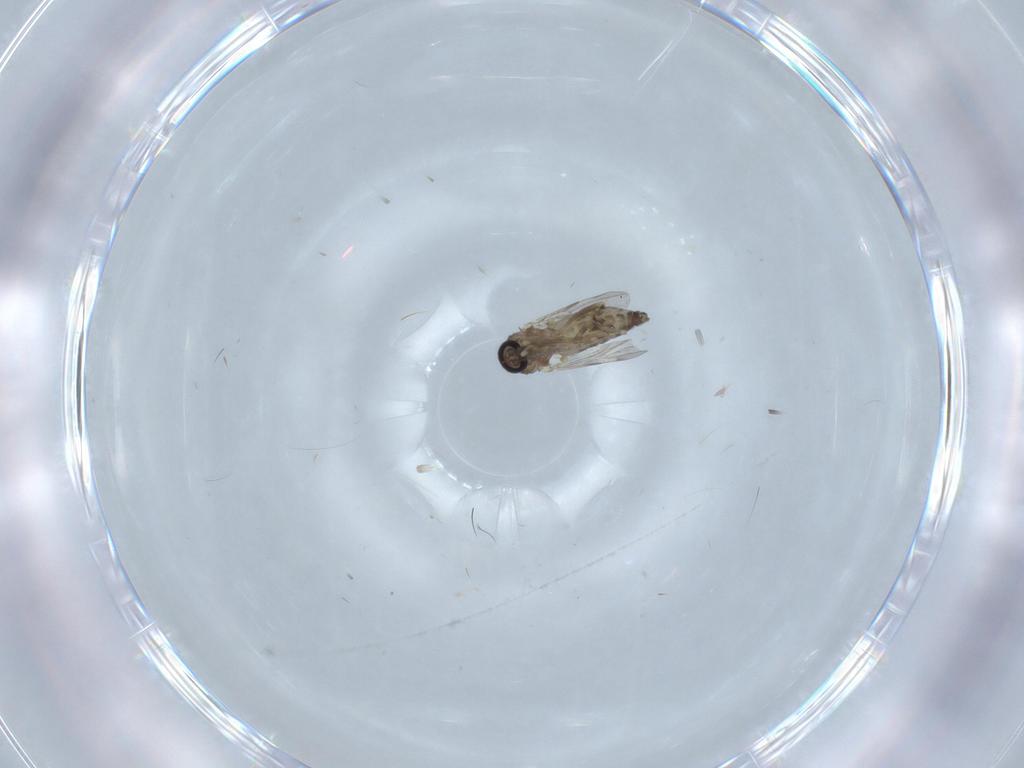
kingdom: Animalia
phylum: Arthropoda
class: Insecta
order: Diptera
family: Ceratopogonidae
